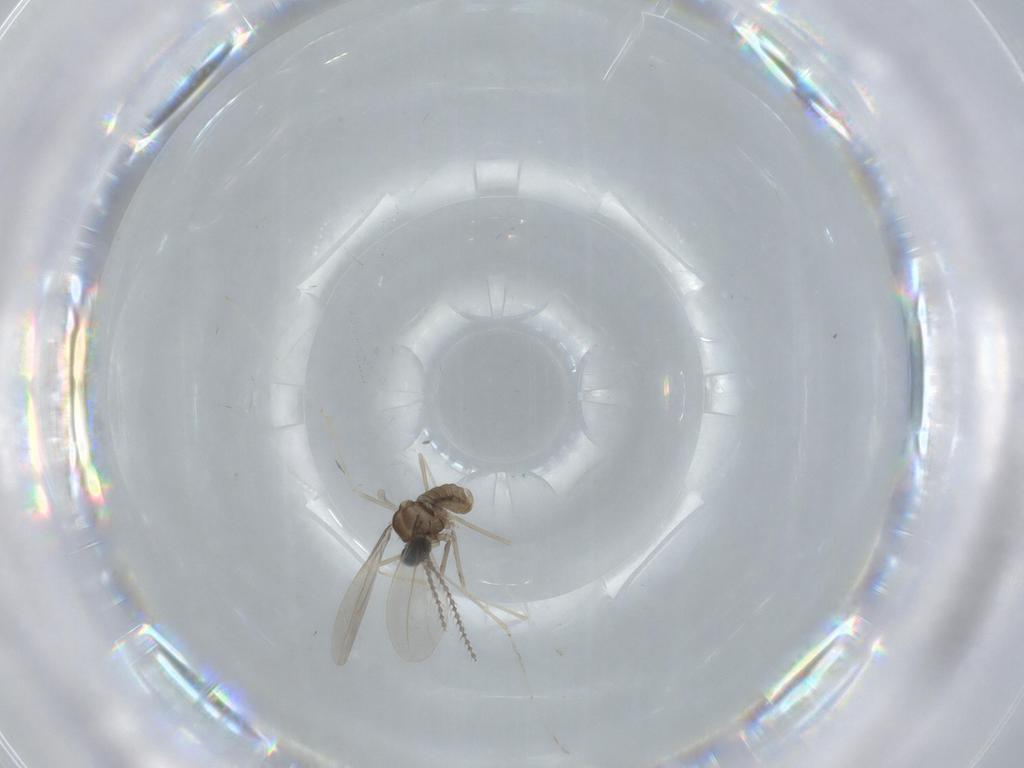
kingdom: Animalia
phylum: Arthropoda
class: Insecta
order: Diptera
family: Chironomidae
